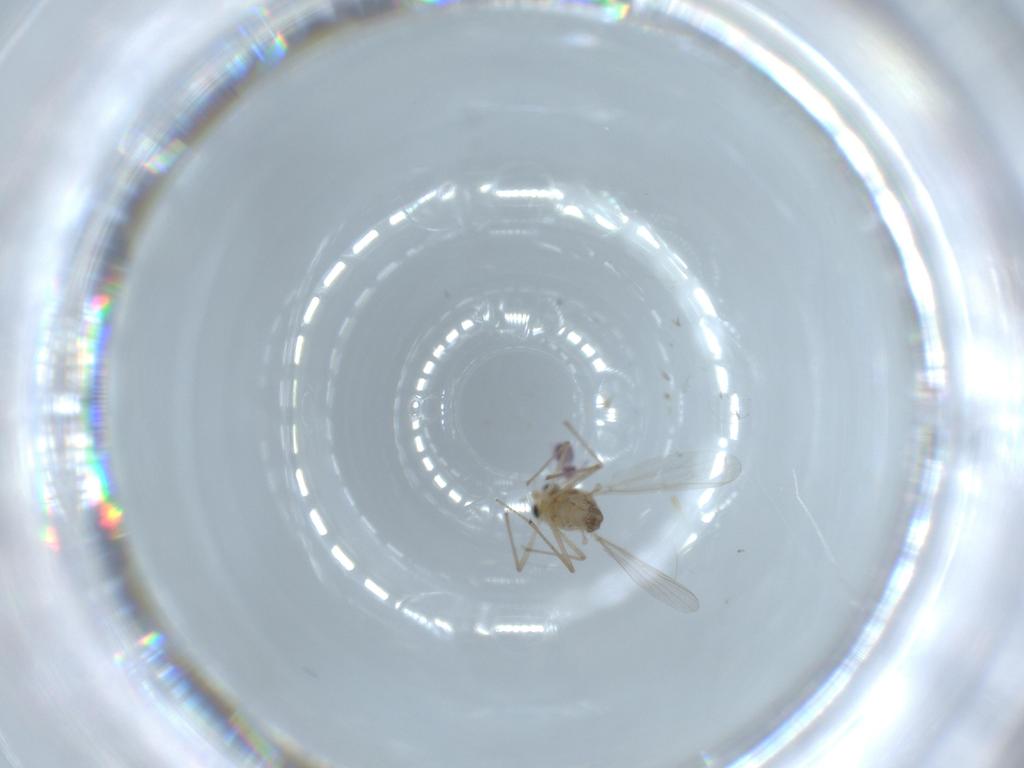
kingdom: Animalia
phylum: Arthropoda
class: Insecta
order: Diptera
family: Chironomidae
